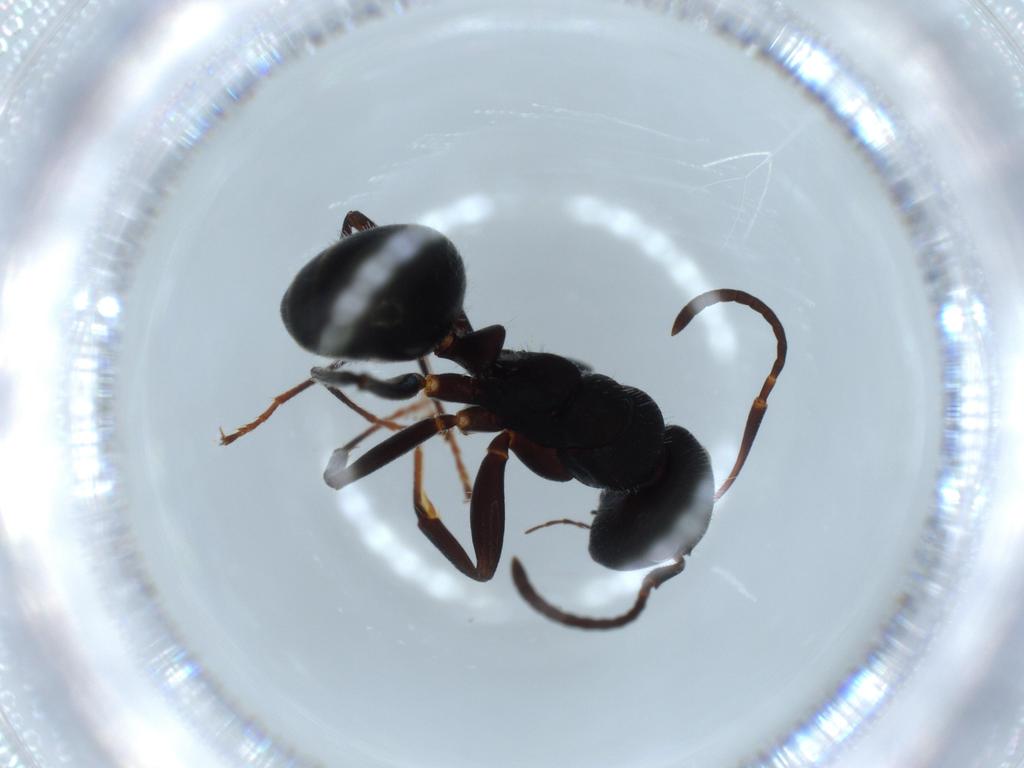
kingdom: Animalia
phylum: Arthropoda
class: Insecta
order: Hymenoptera
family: Formicidae
